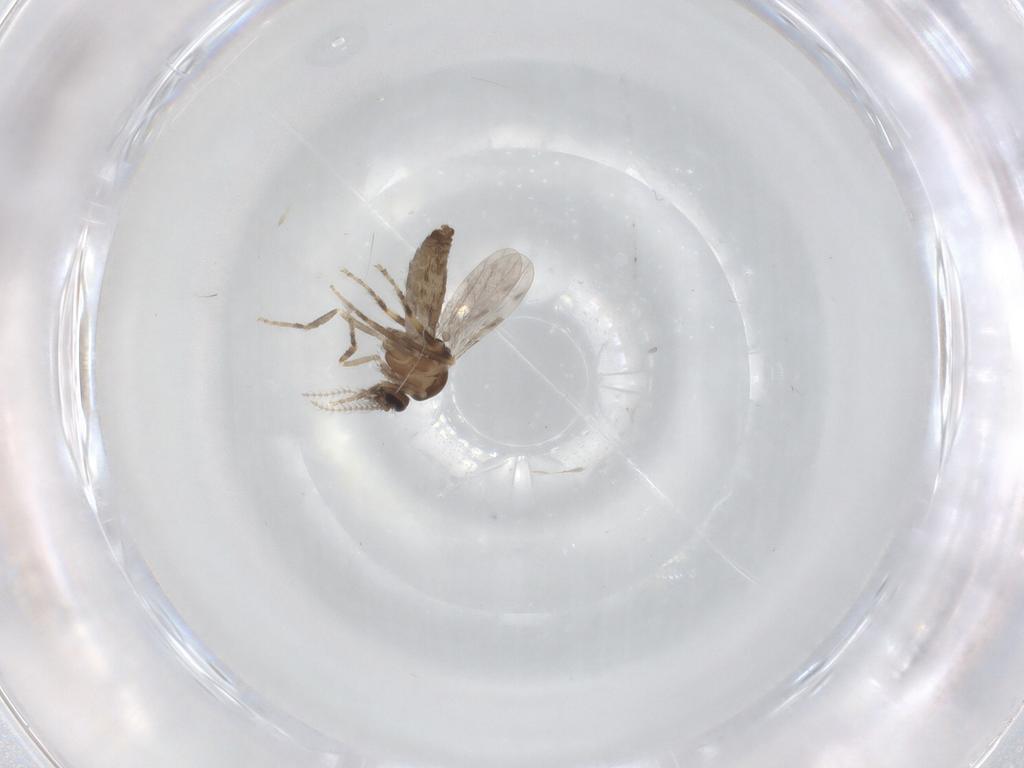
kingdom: Animalia
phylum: Arthropoda
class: Insecta
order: Diptera
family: Ceratopogonidae
